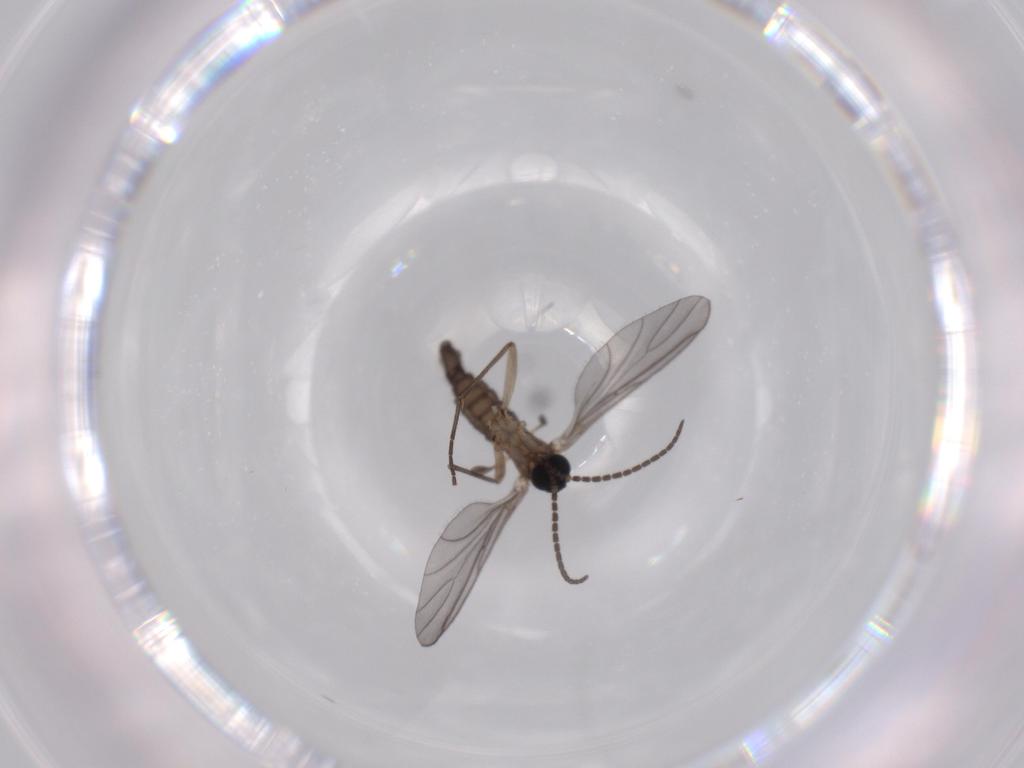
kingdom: Animalia
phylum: Arthropoda
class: Insecta
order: Diptera
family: Sciaridae
